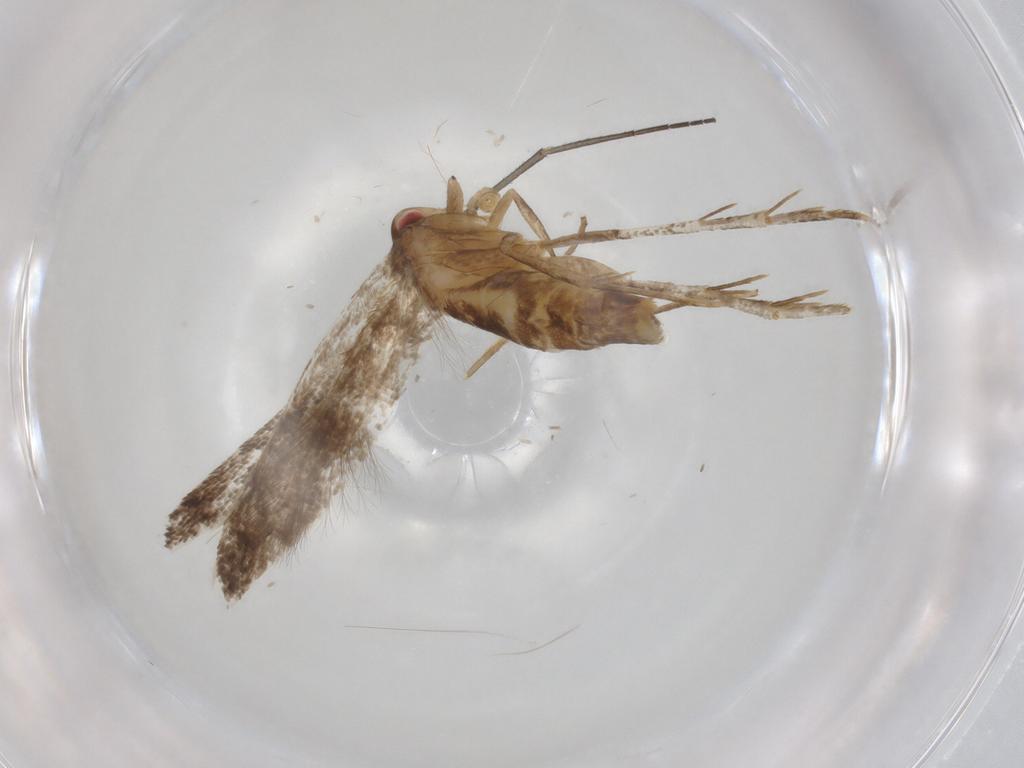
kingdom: Animalia
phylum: Arthropoda
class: Insecta
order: Lepidoptera
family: Cosmopterigidae
